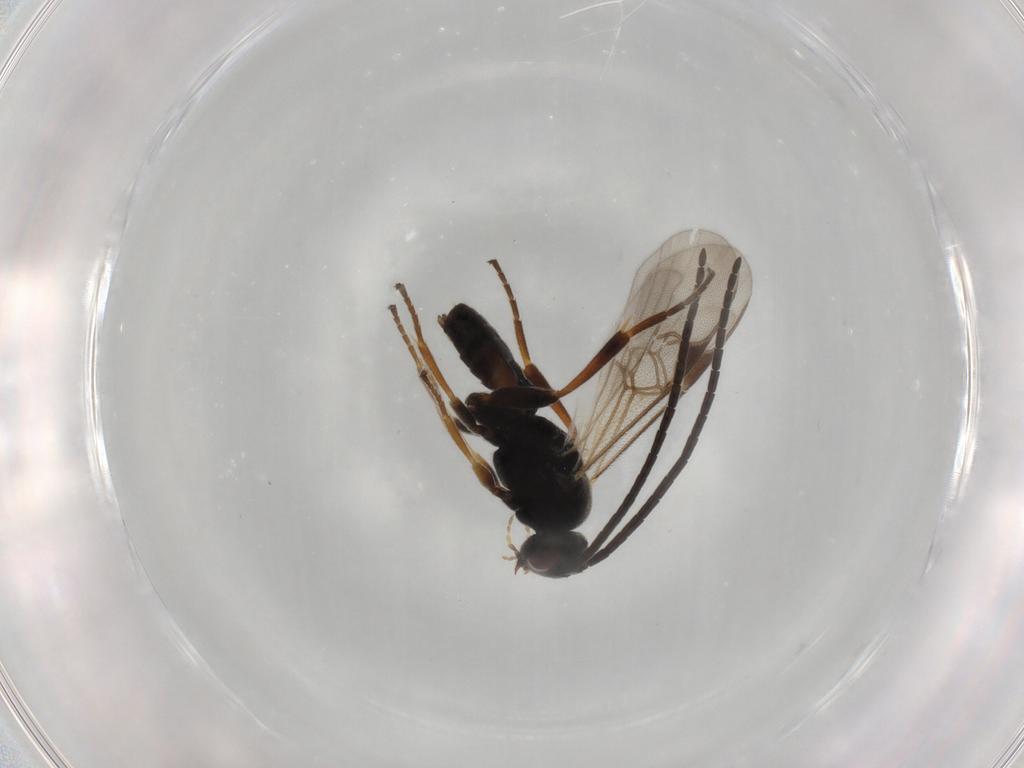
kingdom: Animalia
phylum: Arthropoda
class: Insecta
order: Hymenoptera
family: Braconidae
